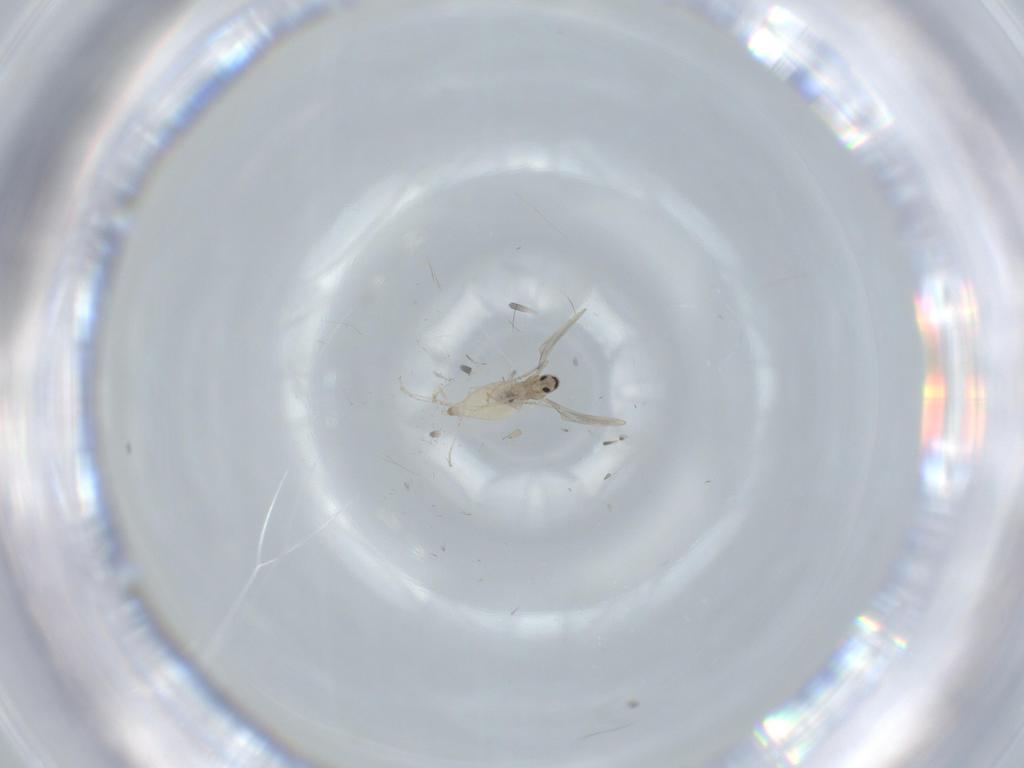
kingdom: Animalia
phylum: Arthropoda
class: Insecta
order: Diptera
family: Cecidomyiidae
